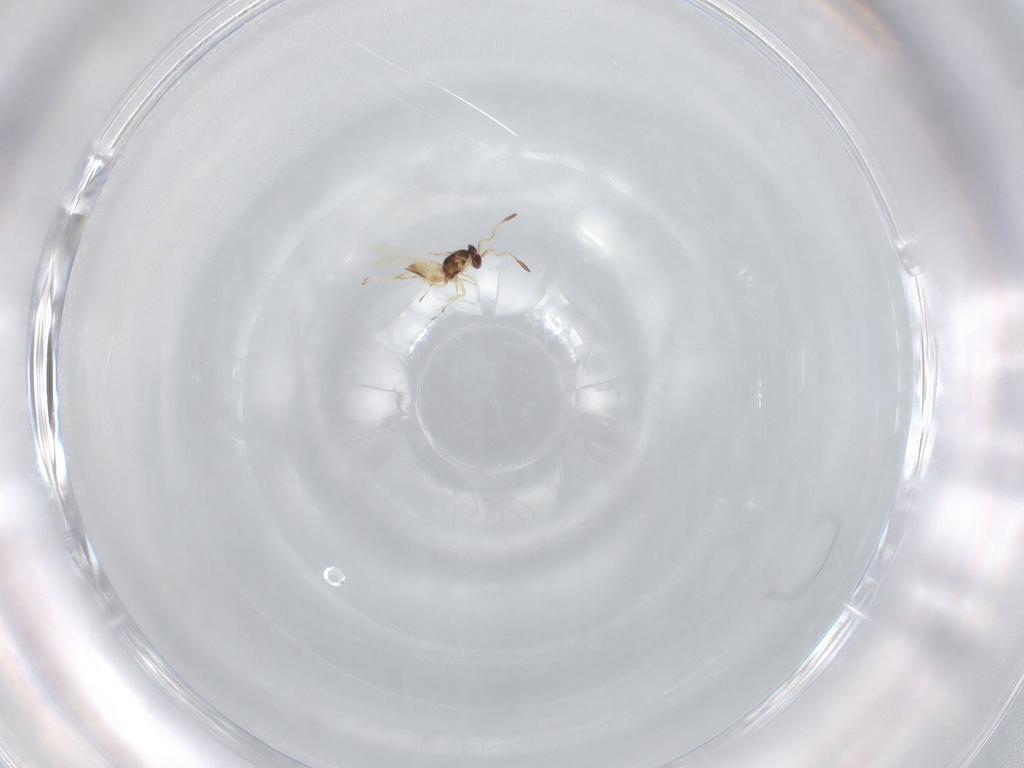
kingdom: Animalia
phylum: Arthropoda
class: Insecta
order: Hymenoptera
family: Mymaridae
